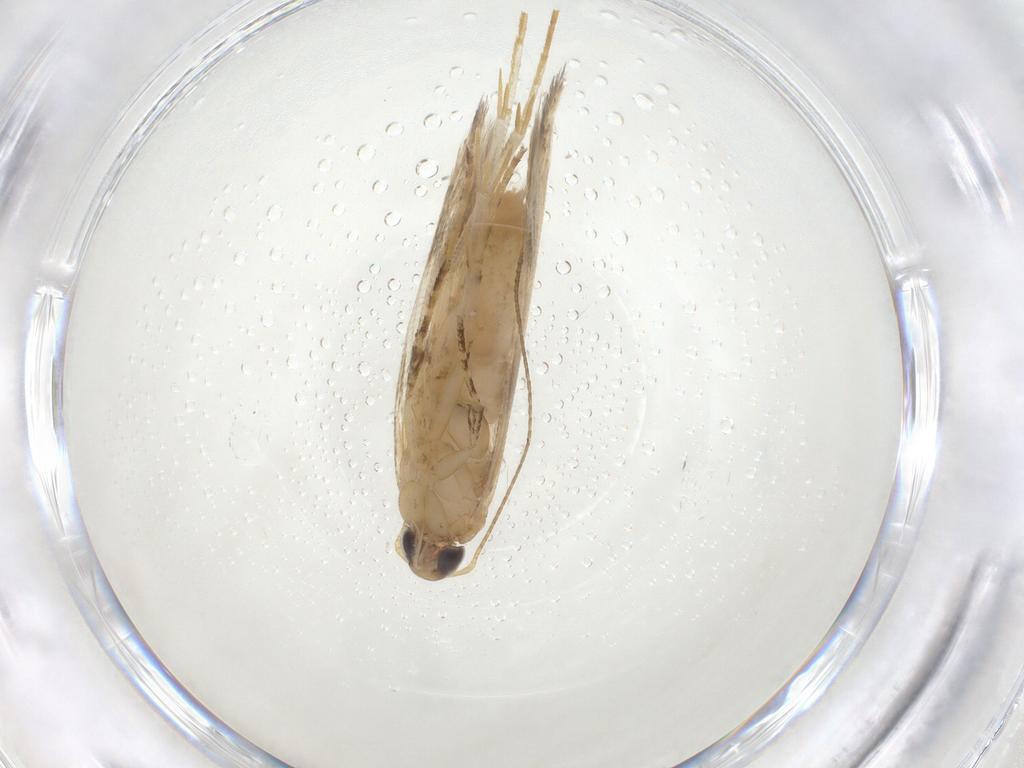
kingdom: Animalia
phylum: Arthropoda
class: Insecta
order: Lepidoptera
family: Gelechiidae
